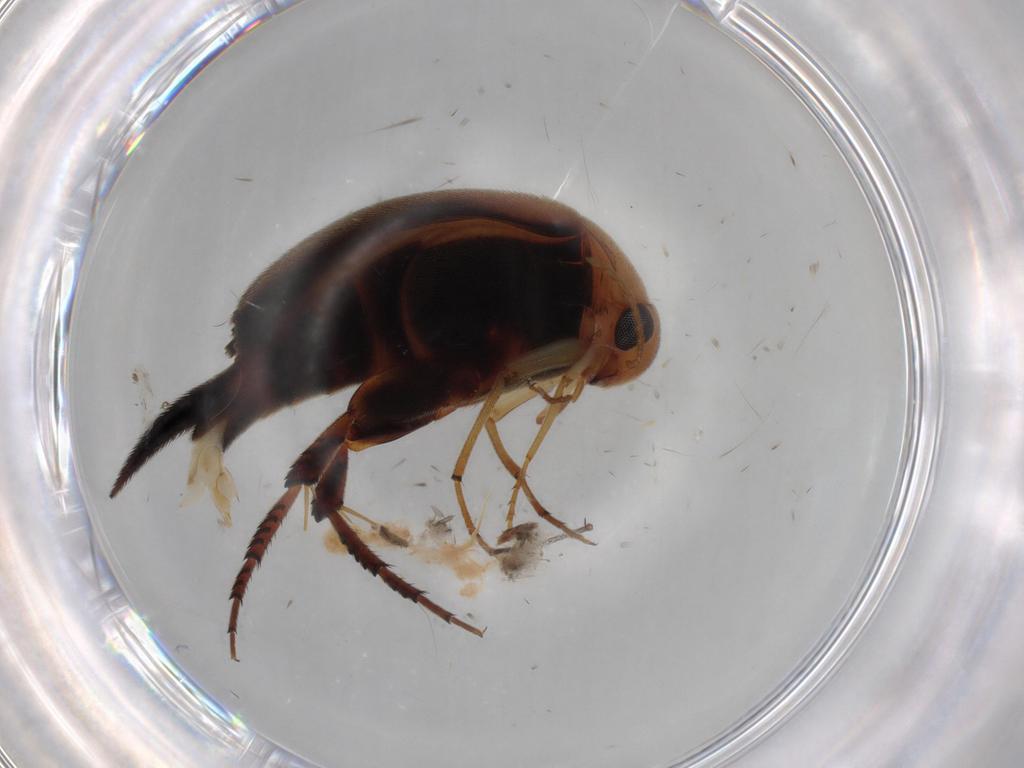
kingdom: Animalia
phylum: Arthropoda
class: Insecta
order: Coleoptera
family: Mordellidae
